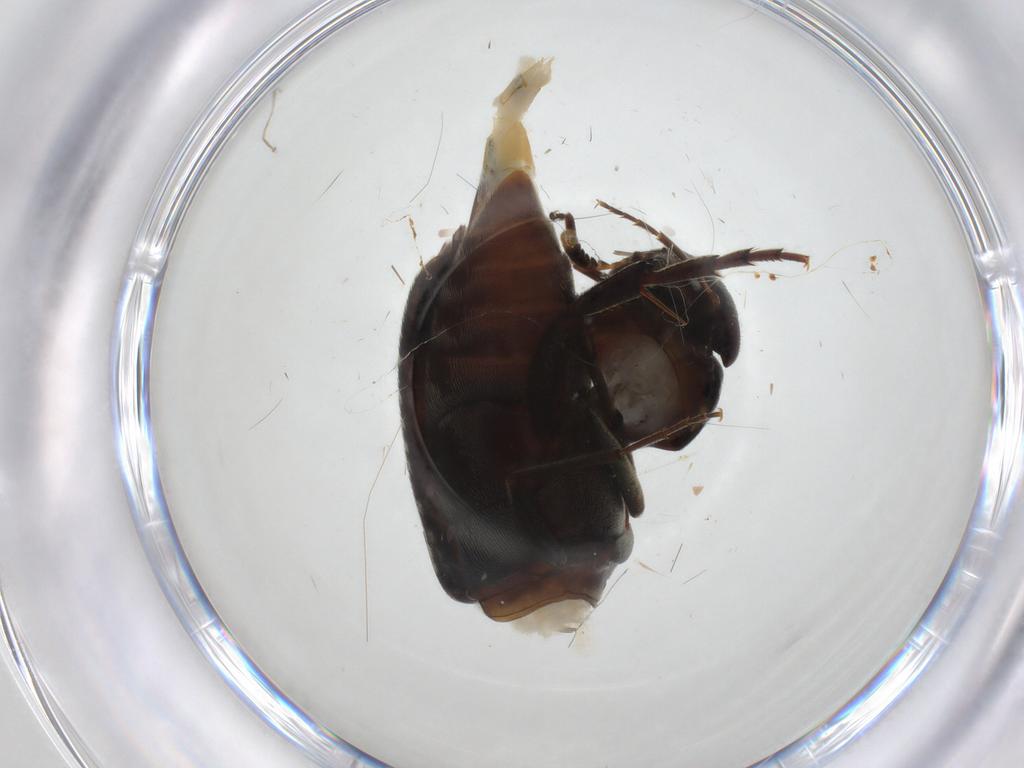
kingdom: Animalia
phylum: Arthropoda
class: Insecta
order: Coleoptera
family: Mordellidae
